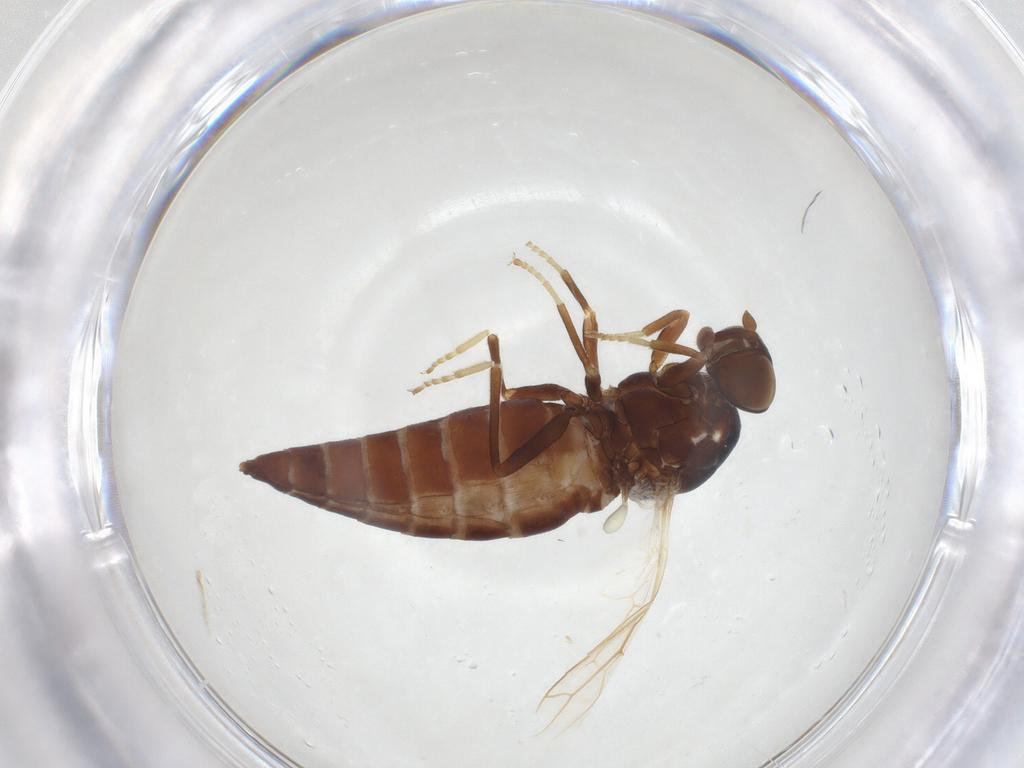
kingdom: Animalia
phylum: Arthropoda
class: Insecta
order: Diptera
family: Scenopinidae
